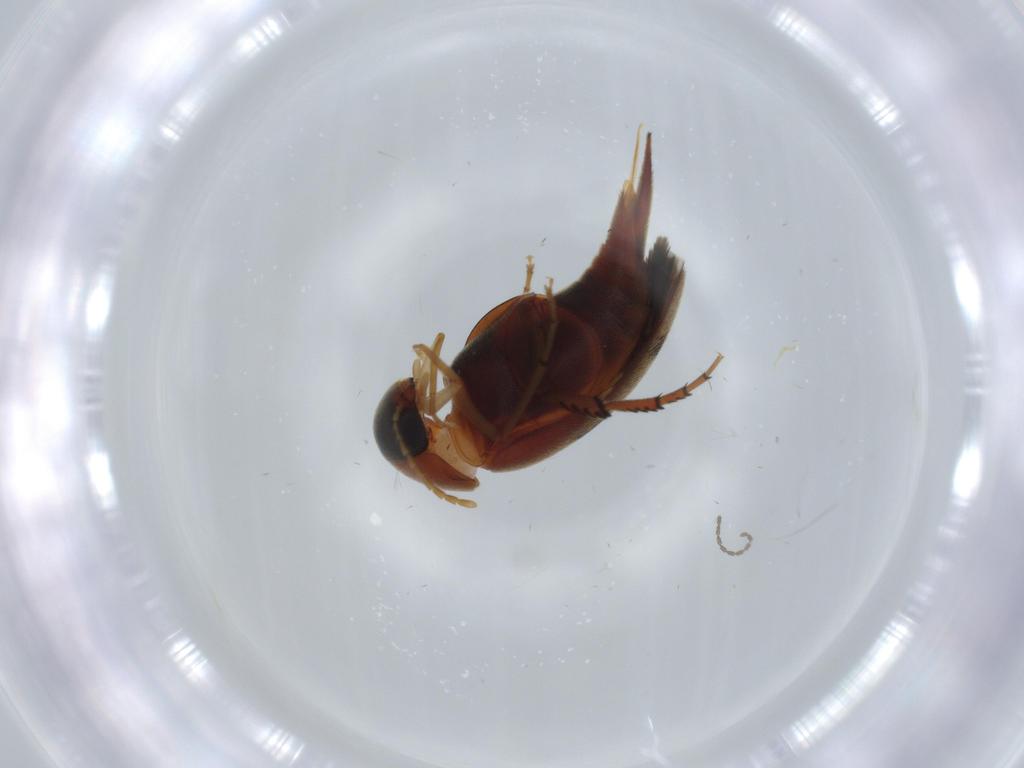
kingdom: Animalia
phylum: Arthropoda
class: Insecta
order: Coleoptera
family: Mordellidae
